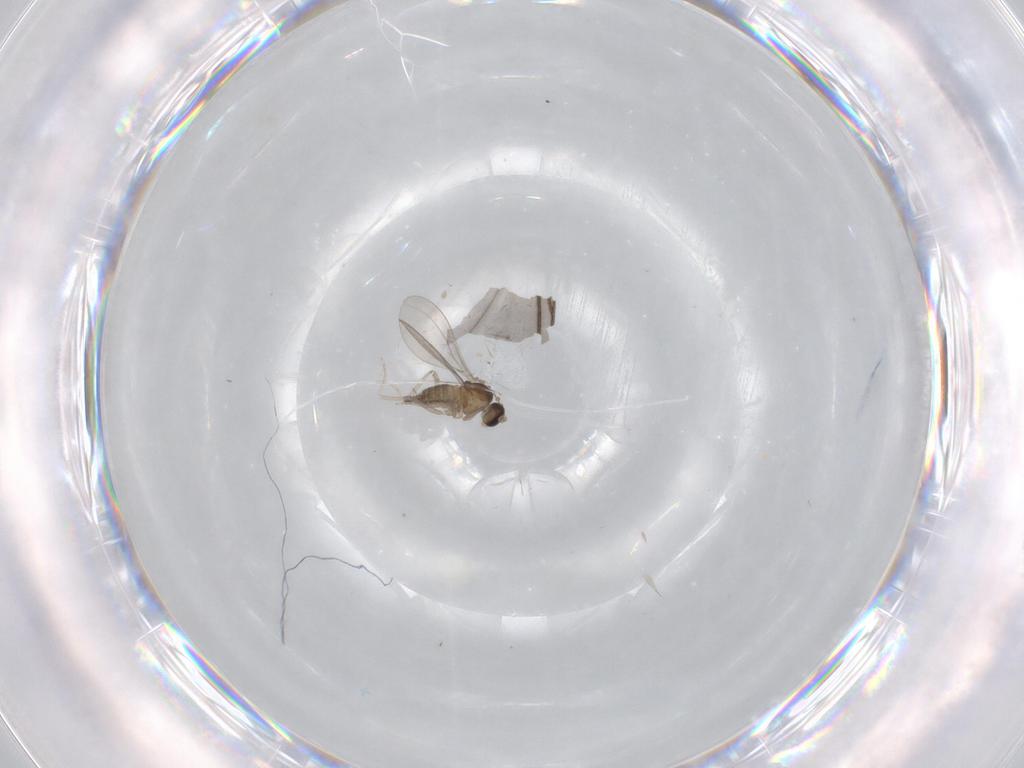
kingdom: Animalia
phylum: Arthropoda
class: Insecta
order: Diptera
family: Cecidomyiidae
